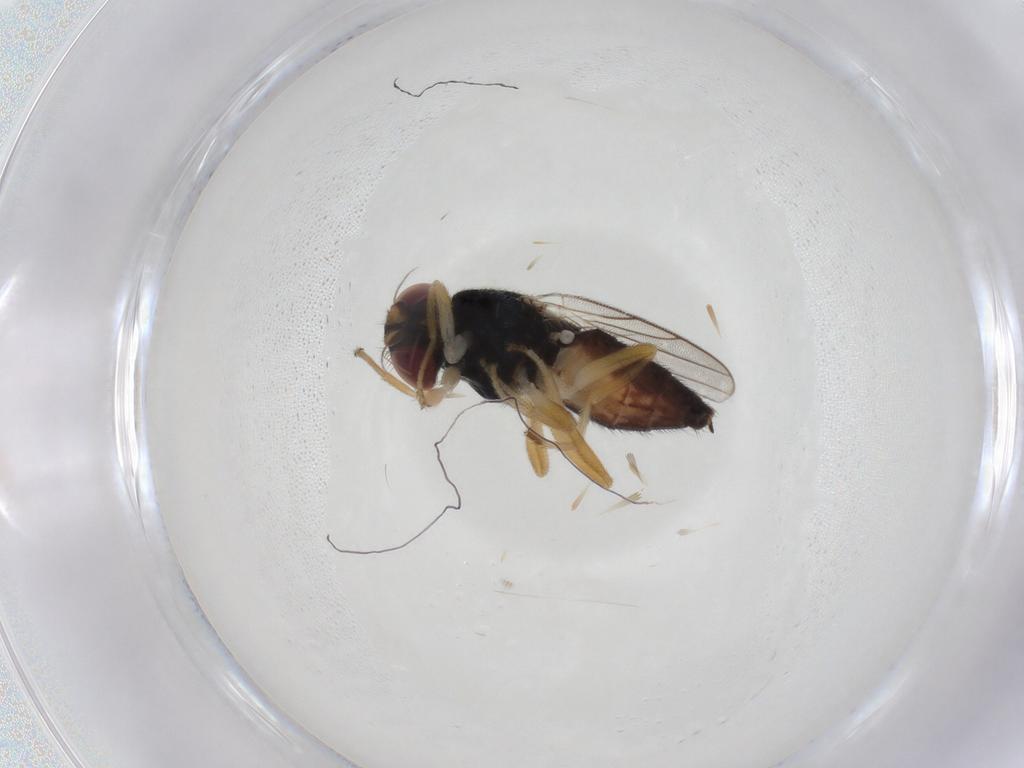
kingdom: Animalia
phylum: Arthropoda
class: Insecta
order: Diptera
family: Chloropidae
